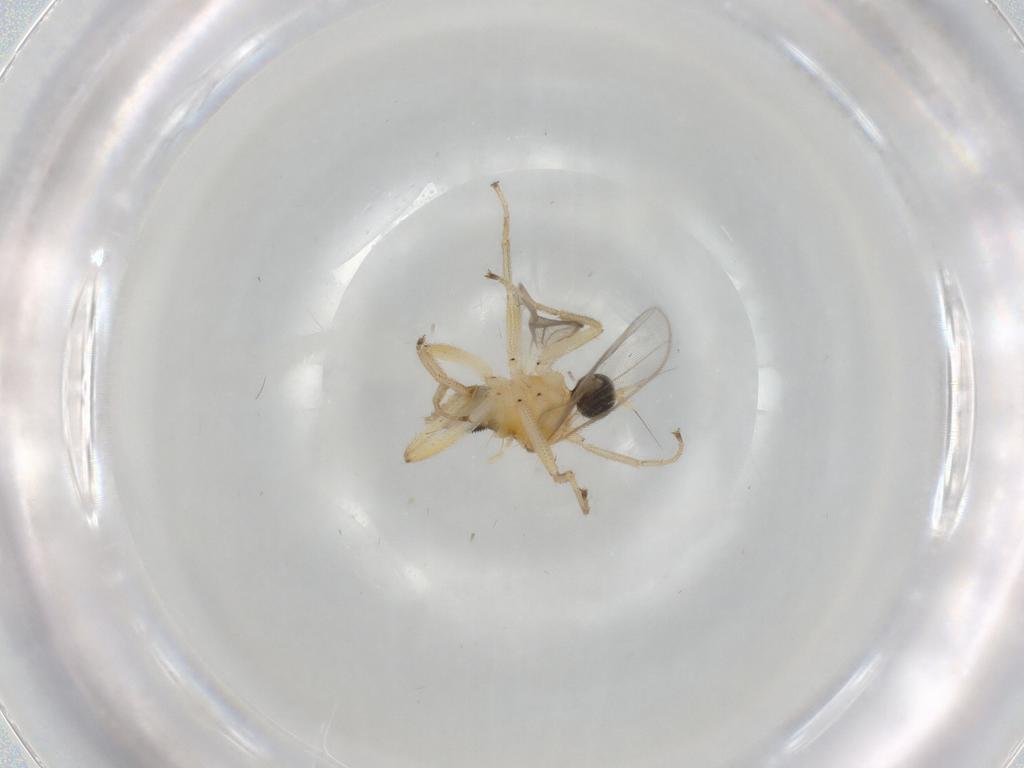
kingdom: Animalia
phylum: Arthropoda
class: Insecta
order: Diptera
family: Hybotidae
